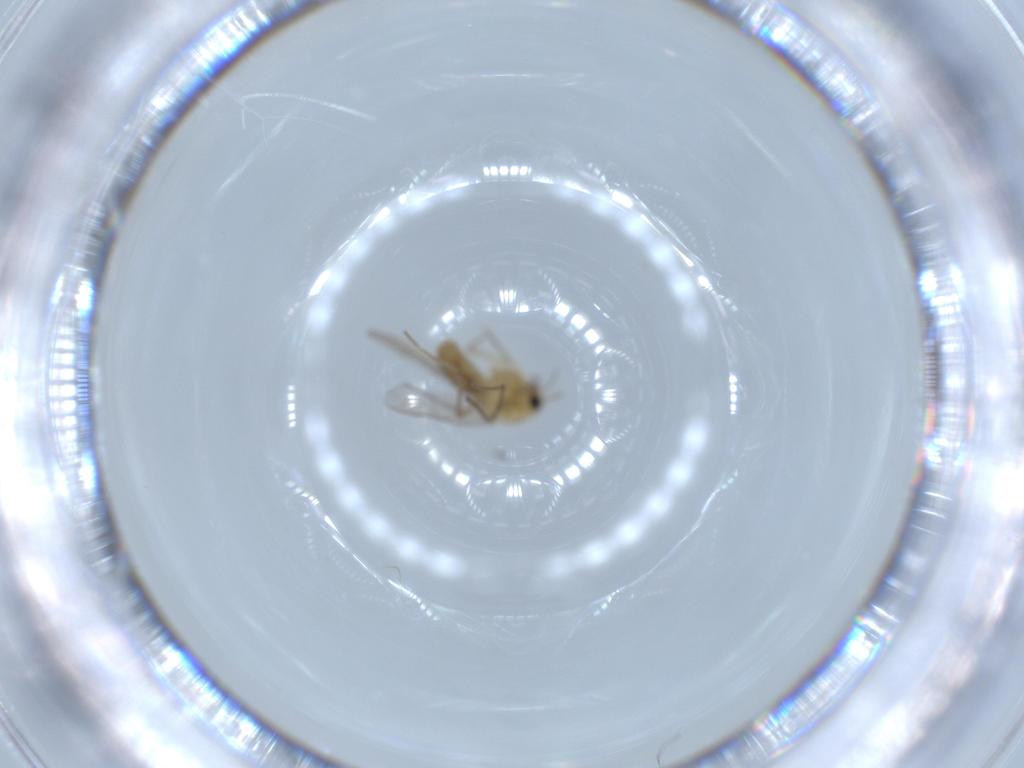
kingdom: Animalia
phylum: Arthropoda
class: Insecta
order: Diptera
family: Chironomidae
